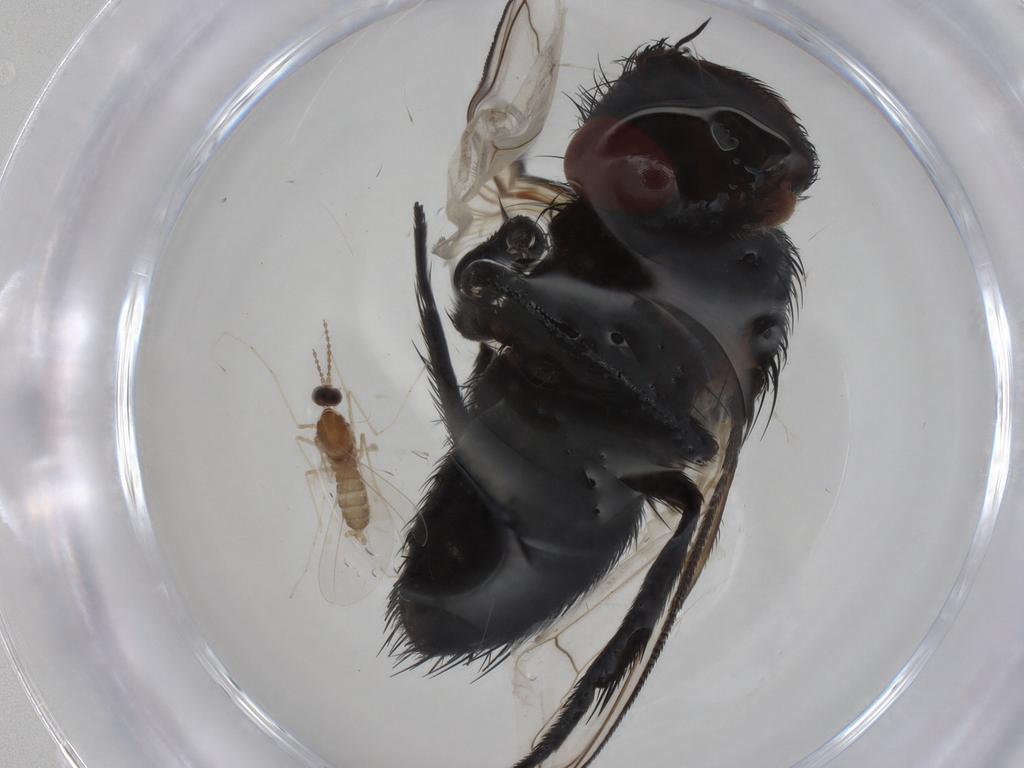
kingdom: Animalia
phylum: Arthropoda
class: Insecta
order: Diptera
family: Tachinidae
